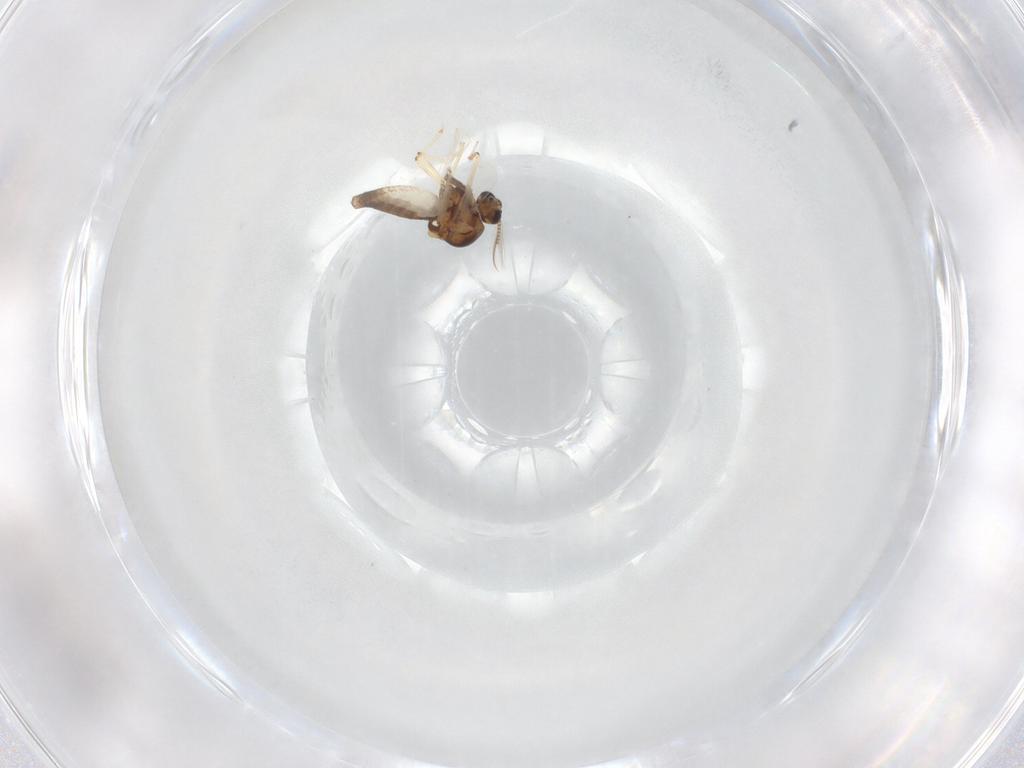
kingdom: Animalia
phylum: Arthropoda
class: Insecta
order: Diptera
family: Ceratopogonidae
